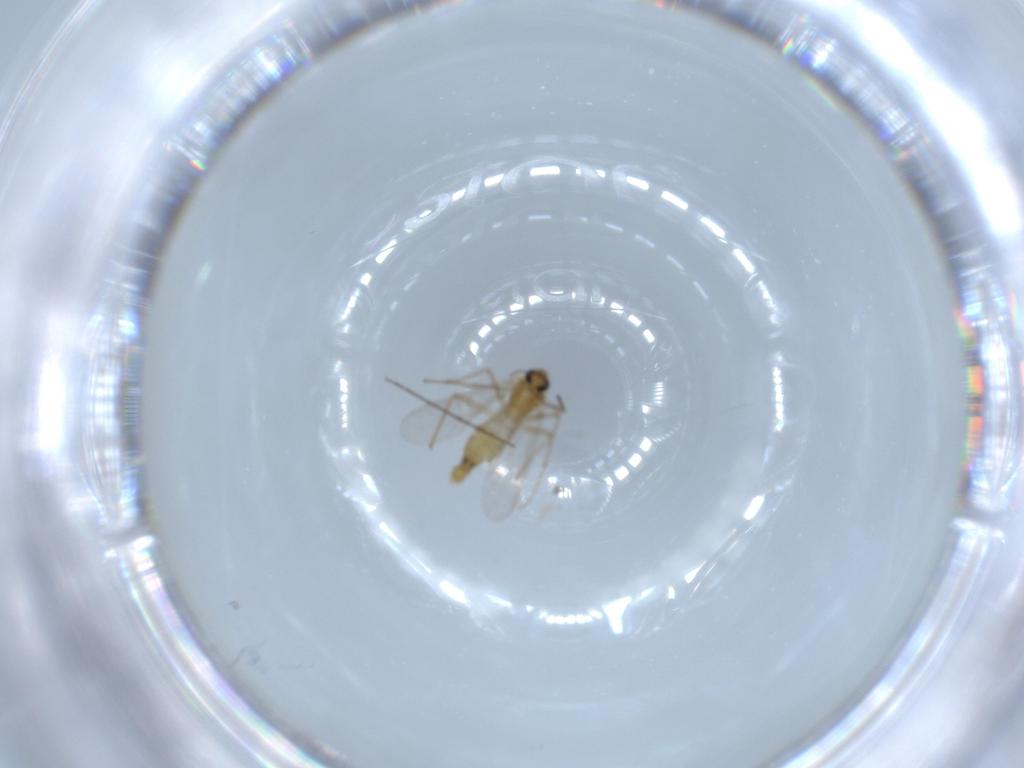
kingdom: Animalia
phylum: Arthropoda
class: Insecta
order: Diptera
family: Chironomidae
